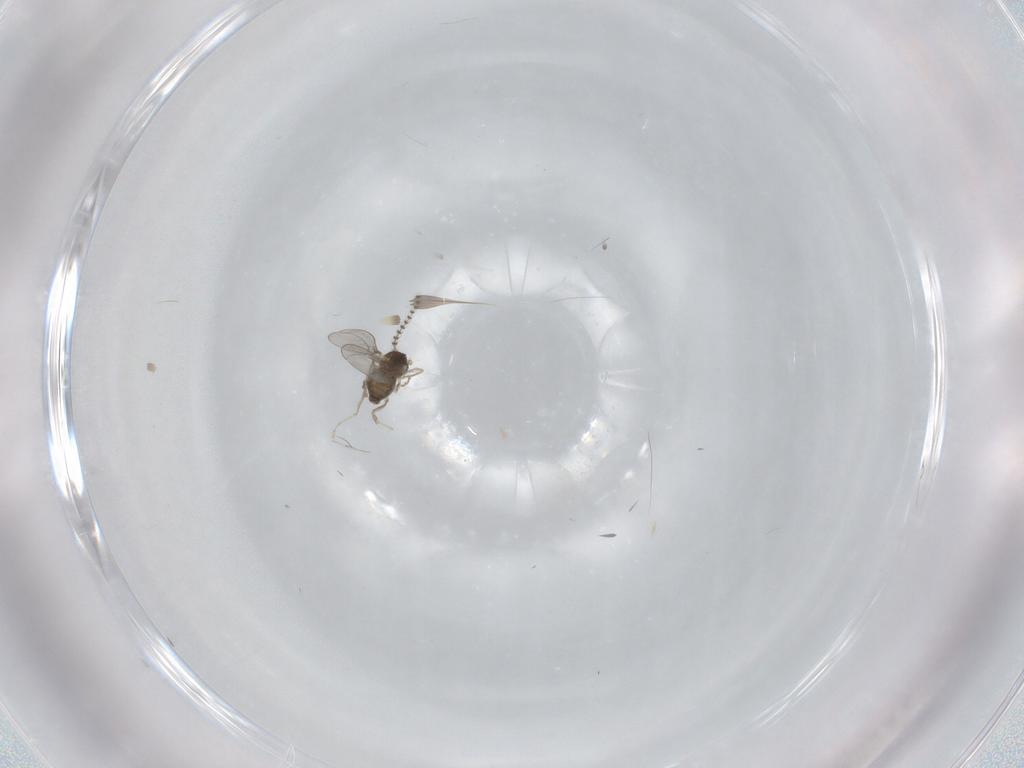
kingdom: Animalia
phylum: Arthropoda
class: Insecta
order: Diptera
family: Cecidomyiidae
